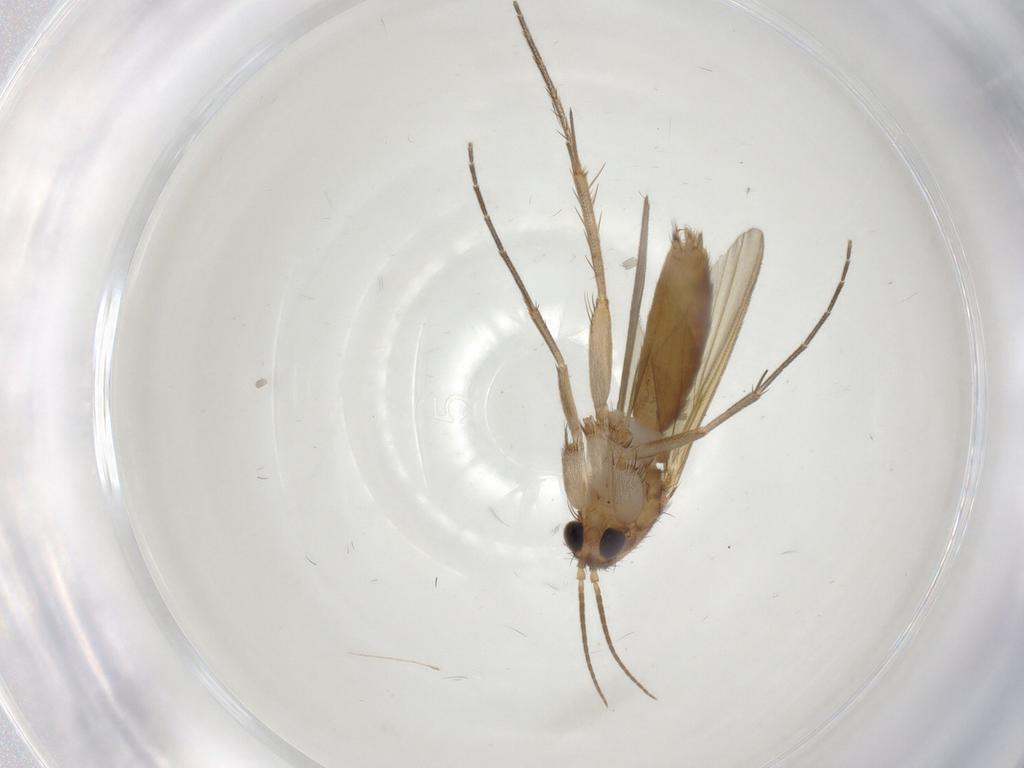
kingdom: Animalia
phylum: Arthropoda
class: Insecta
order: Diptera
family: Mycetophilidae
